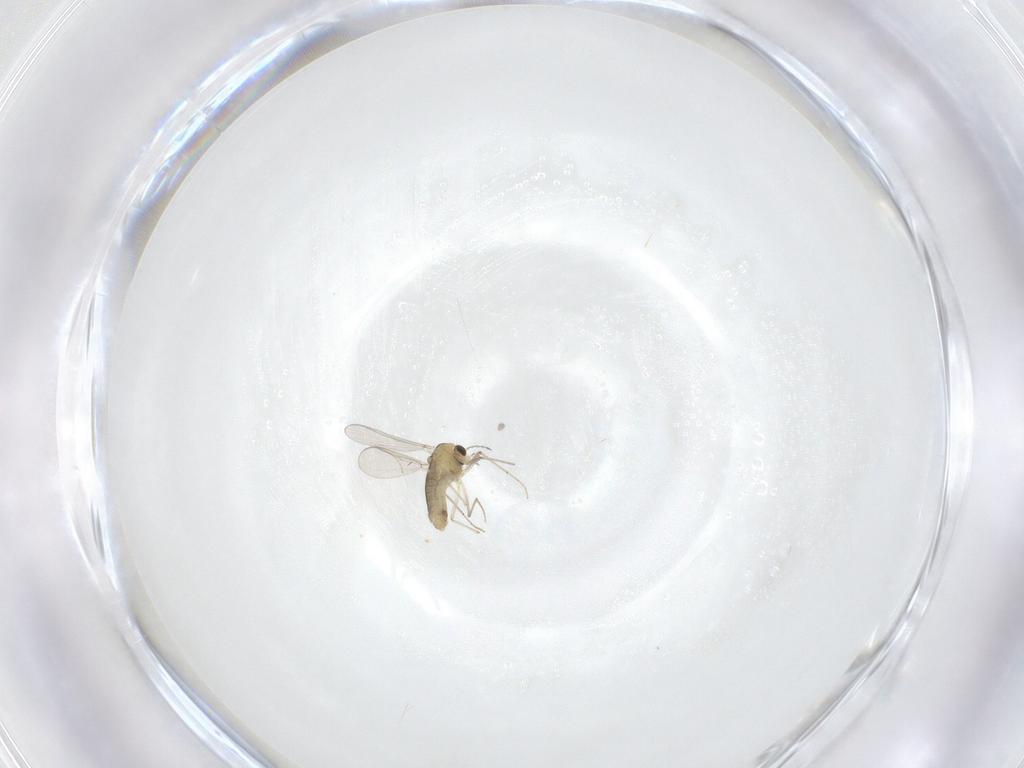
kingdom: Animalia
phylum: Arthropoda
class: Insecta
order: Diptera
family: Chironomidae
